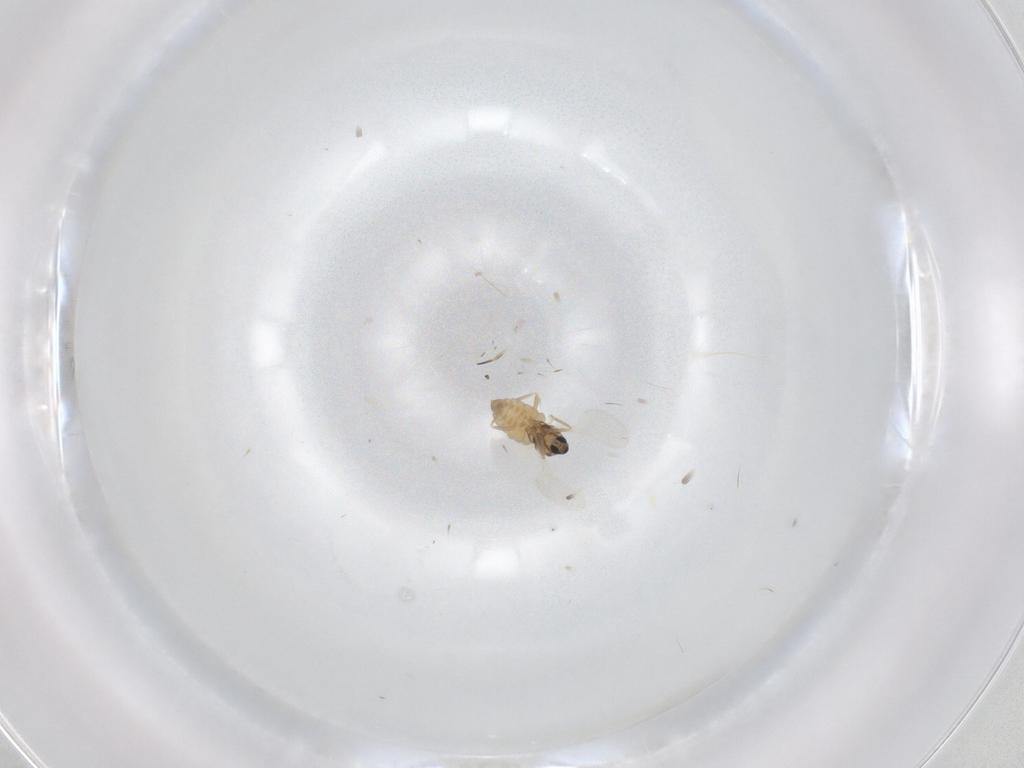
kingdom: Animalia
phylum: Arthropoda
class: Insecta
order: Diptera
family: Cecidomyiidae
